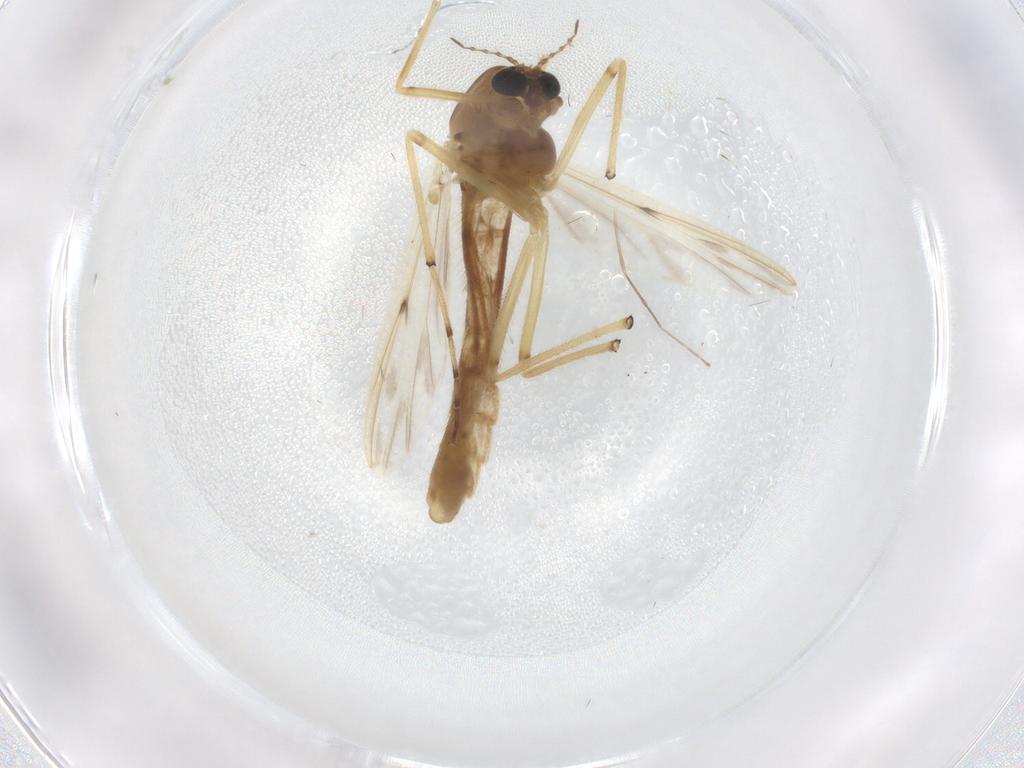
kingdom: Animalia
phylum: Arthropoda
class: Insecta
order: Diptera
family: Chironomidae
